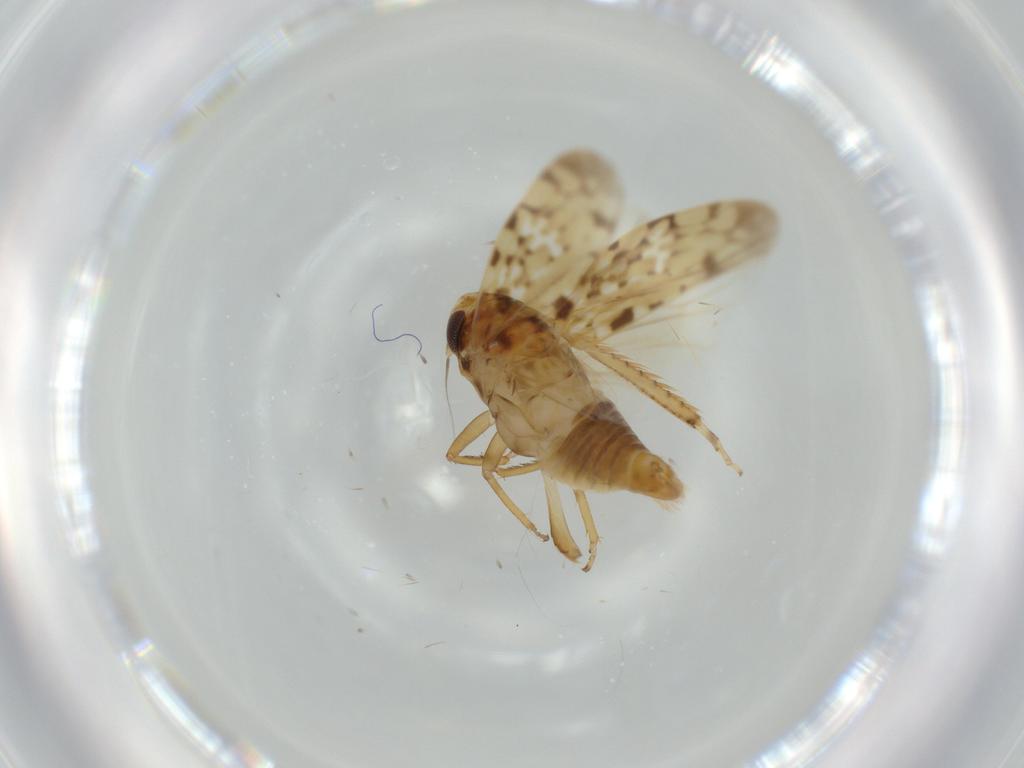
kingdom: Animalia
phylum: Arthropoda
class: Insecta
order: Hemiptera
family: Cicadellidae
